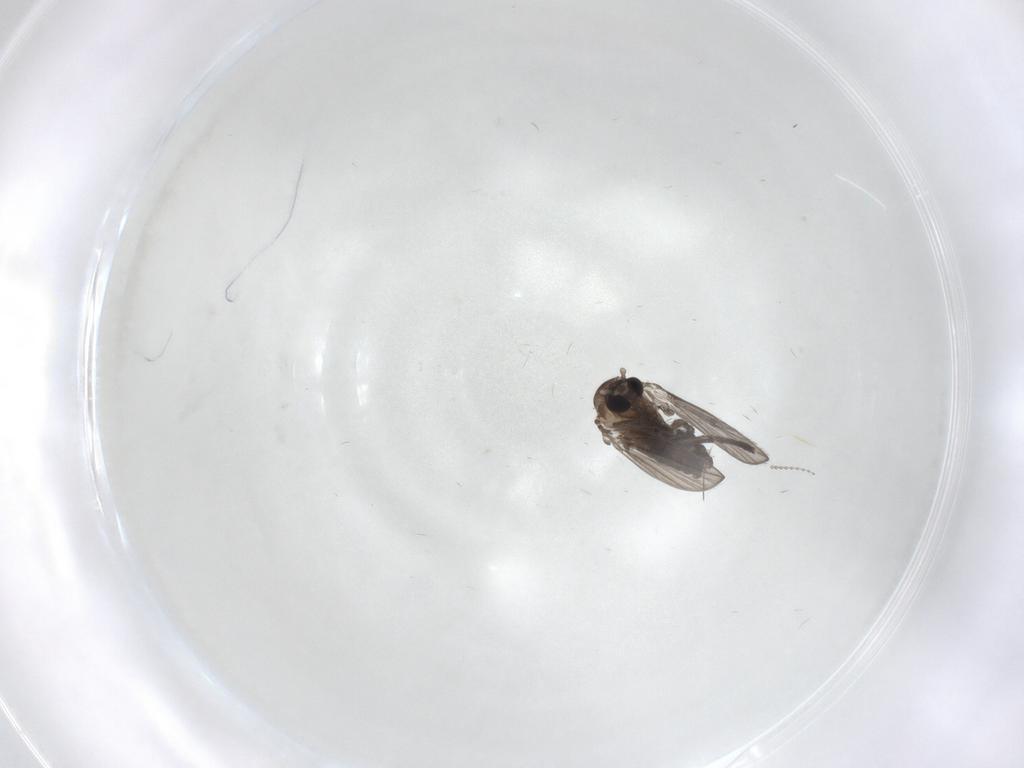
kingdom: Animalia
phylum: Arthropoda
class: Insecta
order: Diptera
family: Psychodidae
